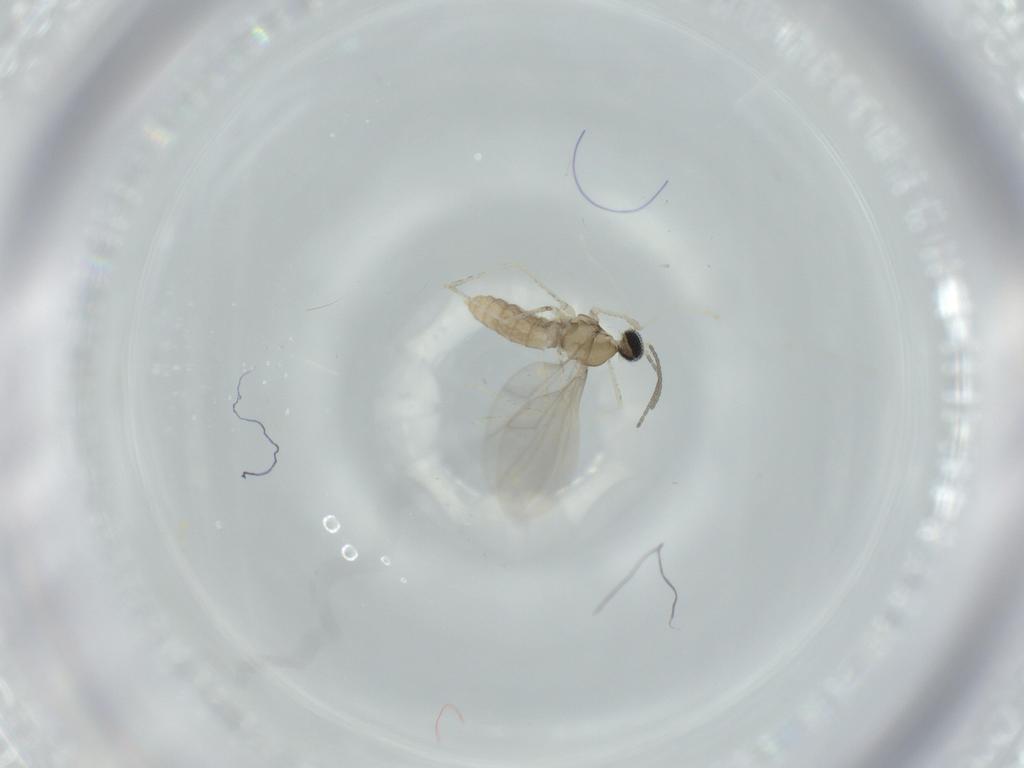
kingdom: Animalia
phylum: Arthropoda
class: Insecta
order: Diptera
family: Cecidomyiidae
